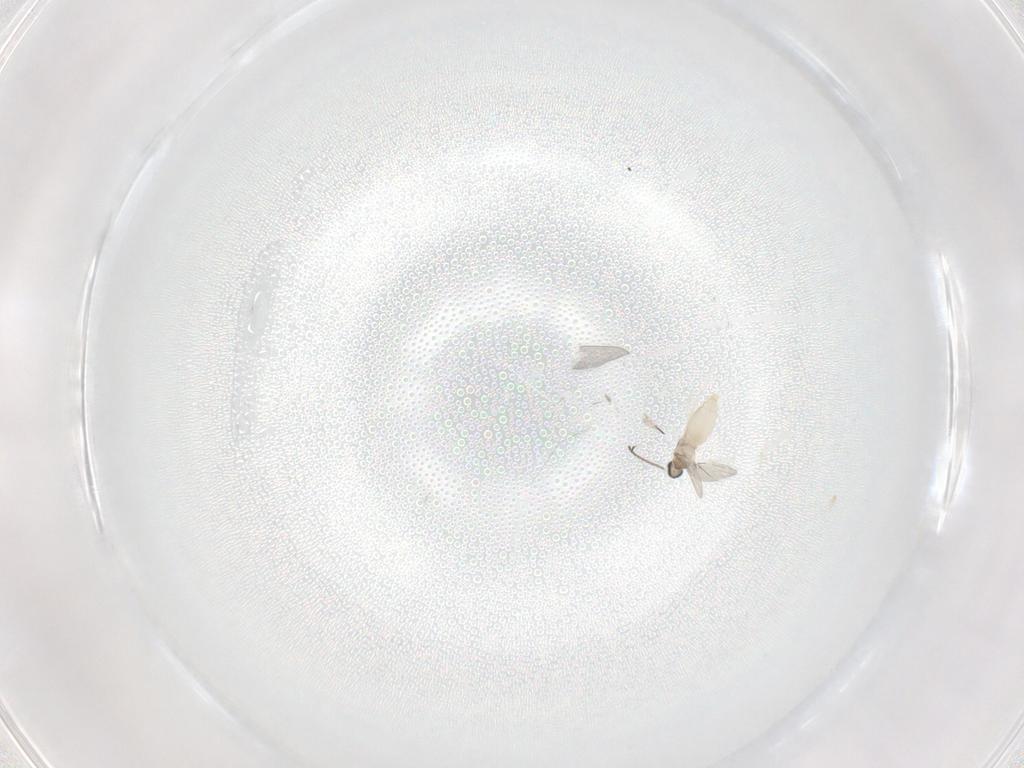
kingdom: Animalia
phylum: Arthropoda
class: Insecta
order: Diptera
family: Cecidomyiidae
